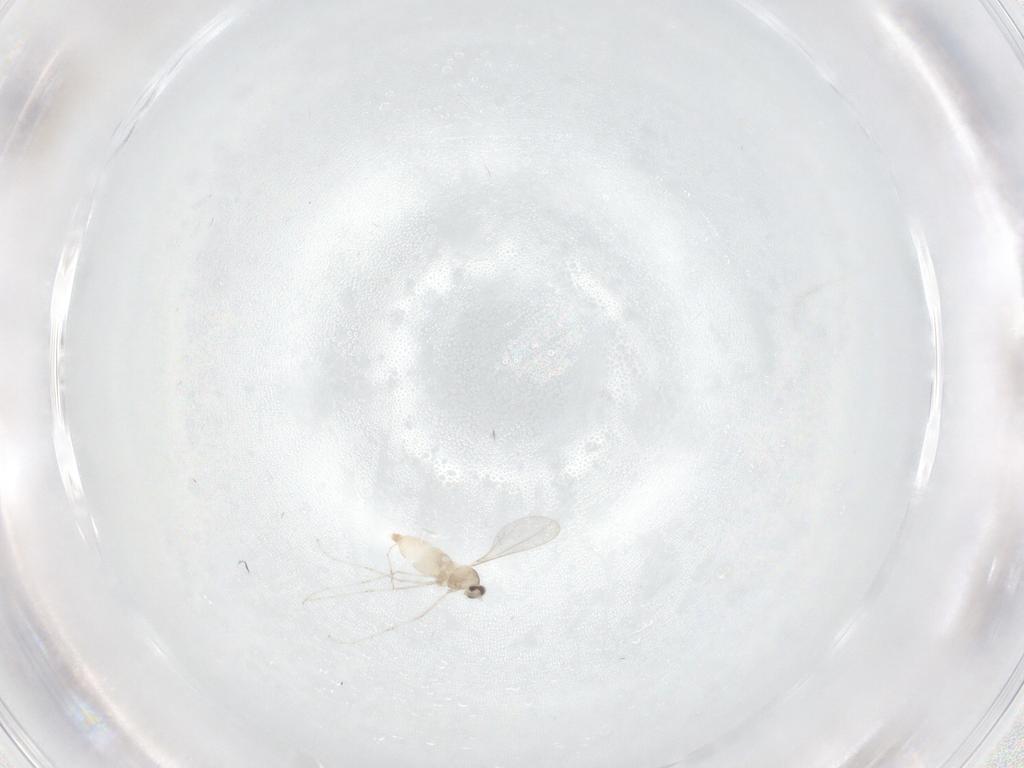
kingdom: Animalia
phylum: Arthropoda
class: Insecta
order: Diptera
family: Cecidomyiidae
